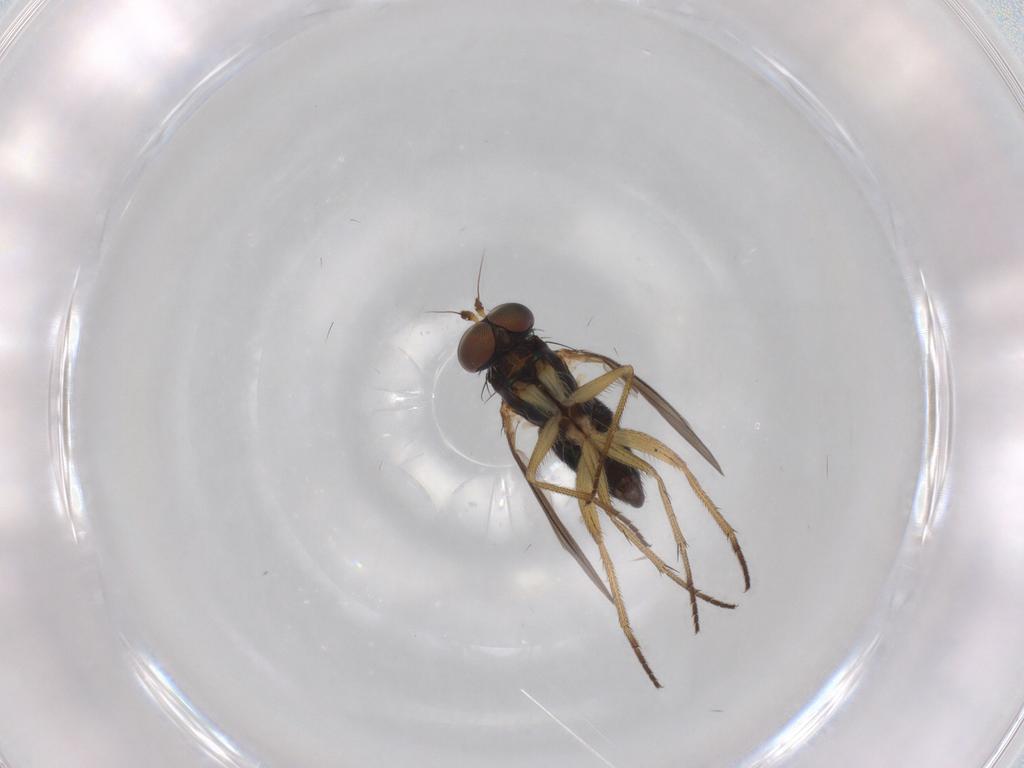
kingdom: Animalia
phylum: Arthropoda
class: Insecta
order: Diptera
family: Dolichopodidae
